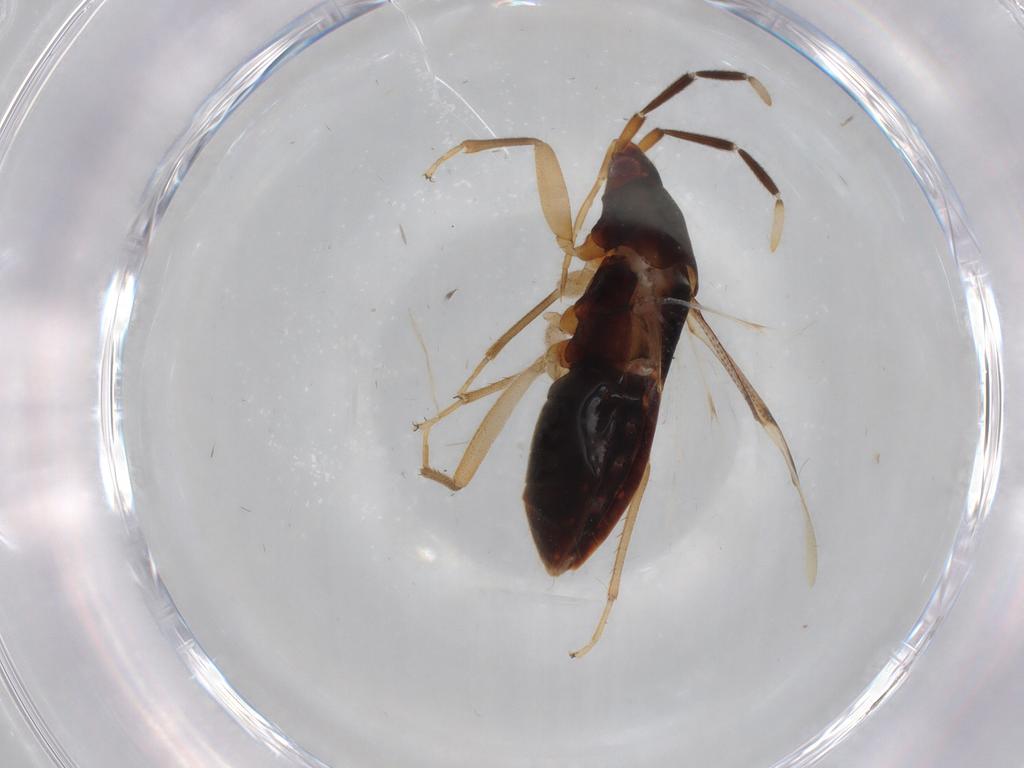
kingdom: Animalia
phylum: Arthropoda
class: Insecta
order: Hemiptera
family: Rhyparochromidae
